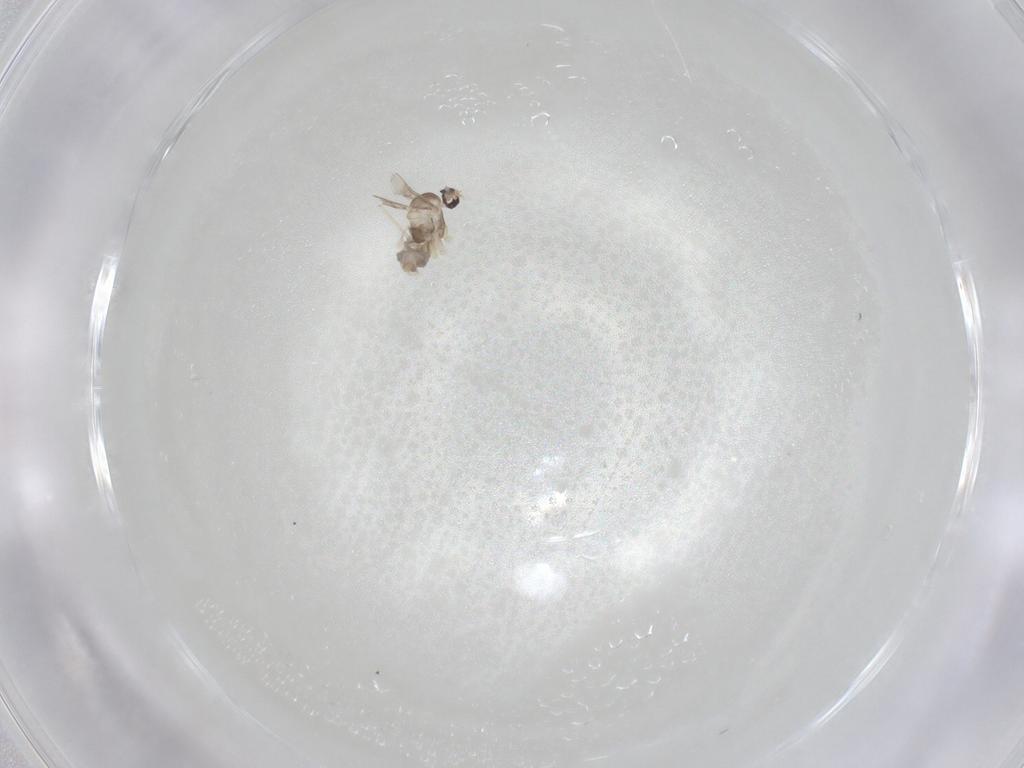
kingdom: Animalia
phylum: Arthropoda
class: Insecta
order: Diptera
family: Cecidomyiidae
